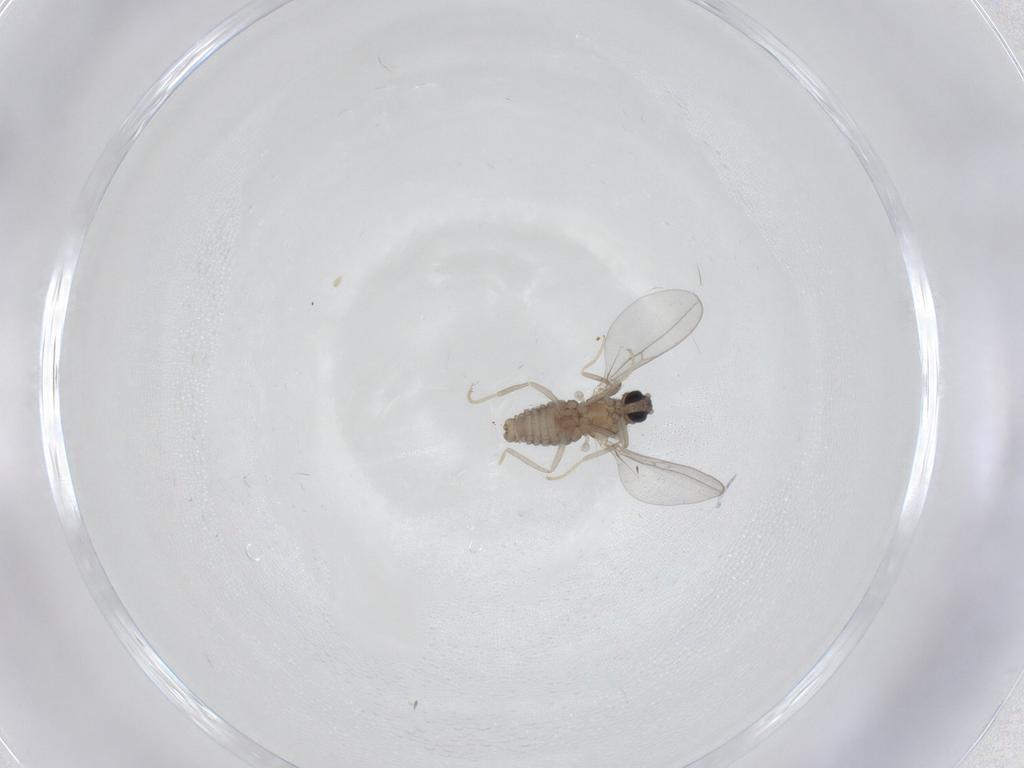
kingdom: Animalia
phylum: Arthropoda
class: Insecta
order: Diptera
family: Cecidomyiidae
